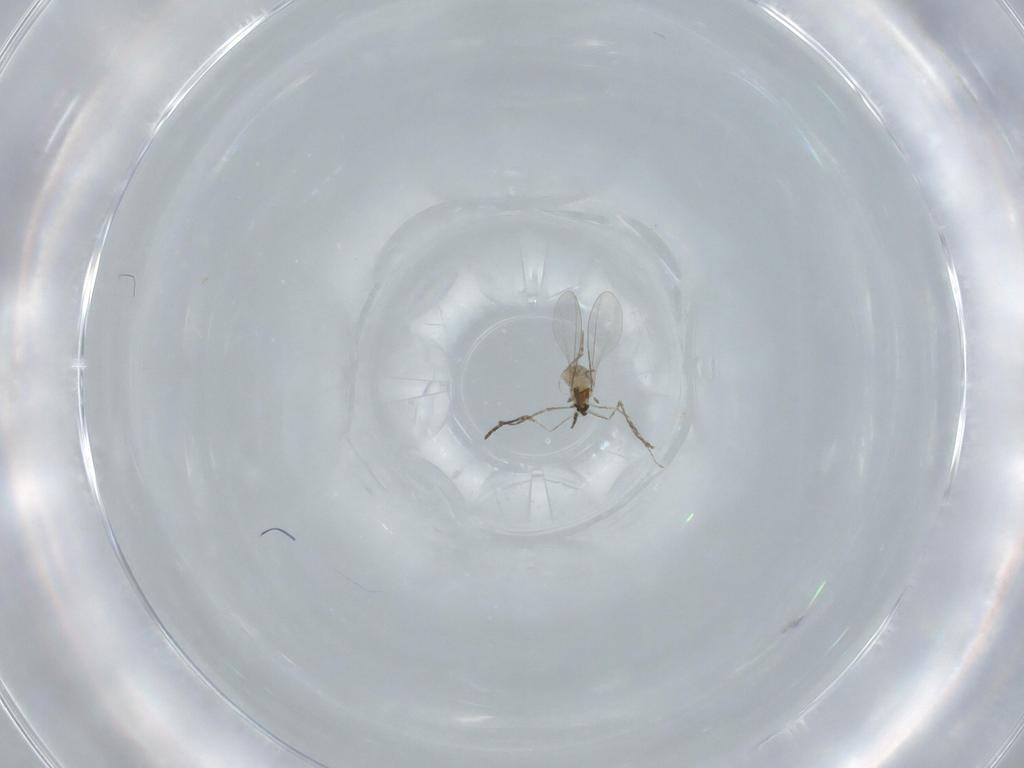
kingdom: Animalia
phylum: Arthropoda
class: Insecta
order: Diptera
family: Cecidomyiidae
